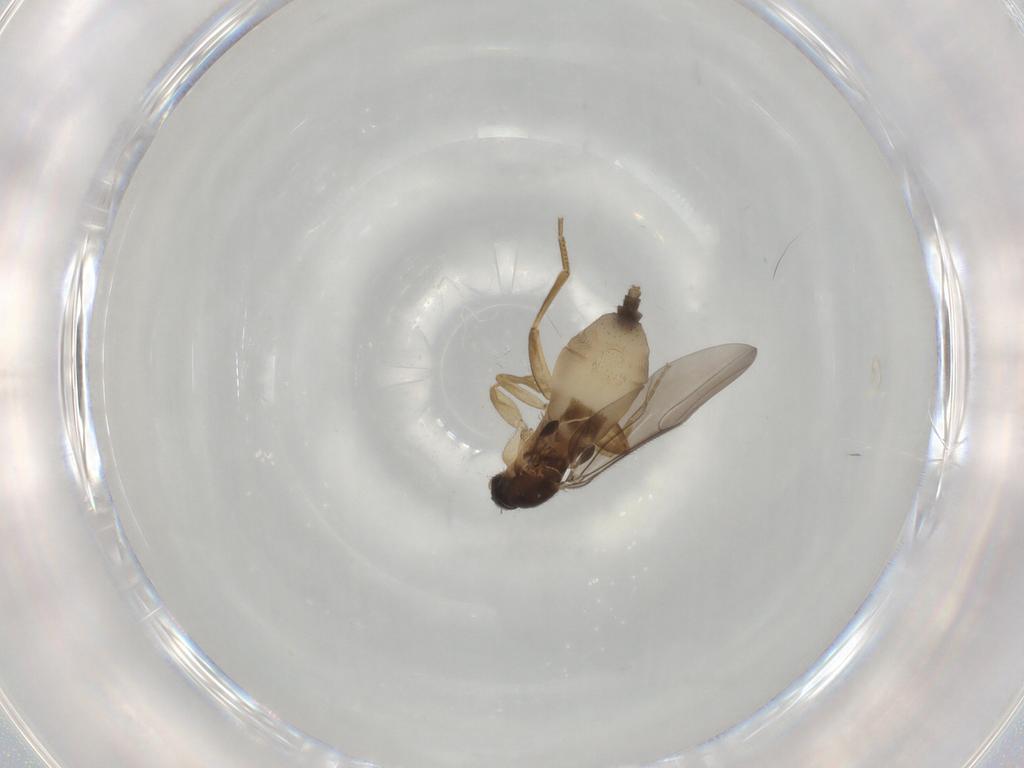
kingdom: Animalia
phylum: Arthropoda
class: Insecta
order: Diptera
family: Phoridae
